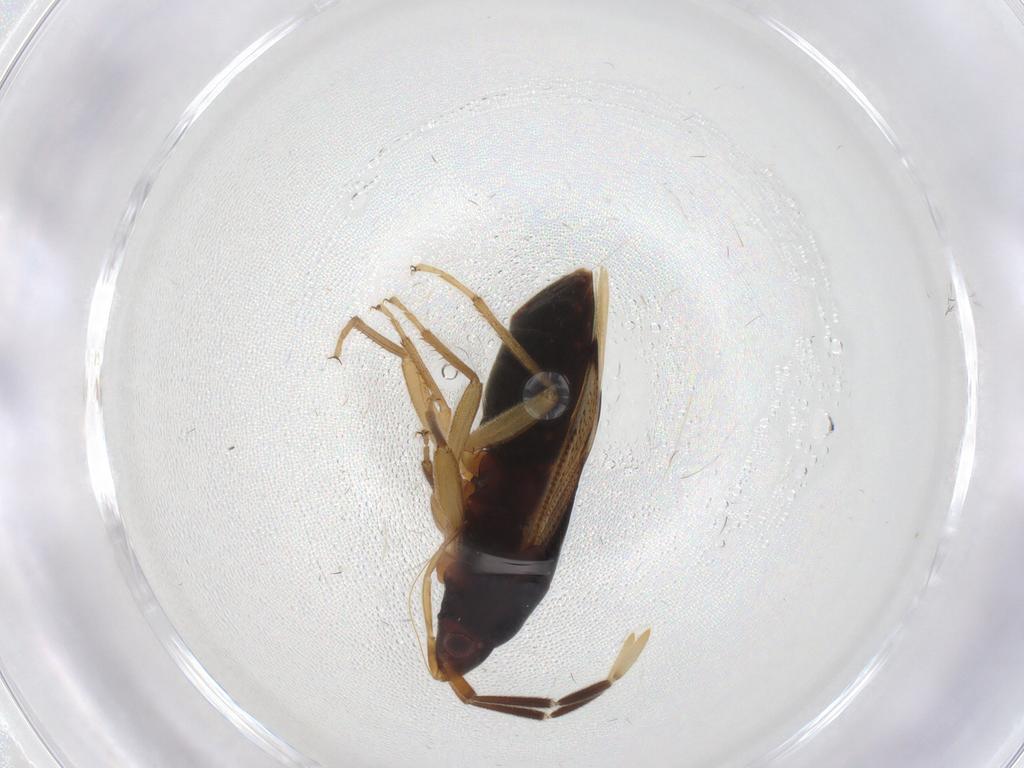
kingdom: Animalia
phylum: Arthropoda
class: Insecta
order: Hemiptera
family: Rhyparochromidae
